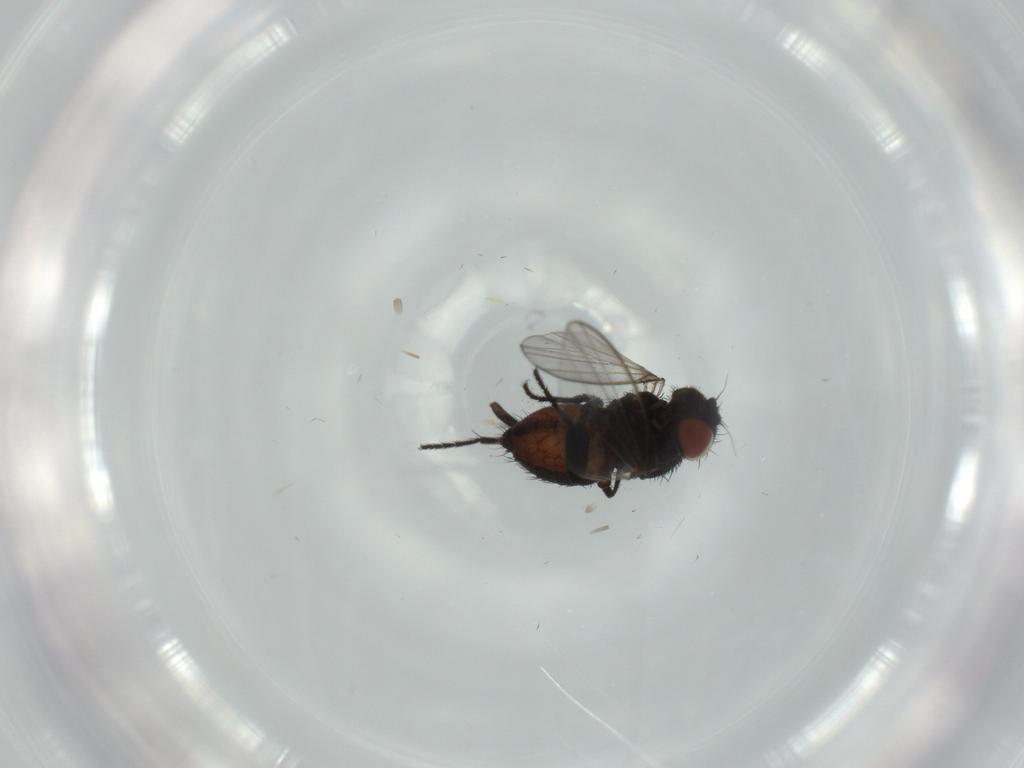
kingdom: Animalia
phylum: Arthropoda
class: Insecta
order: Diptera
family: Milichiidae
